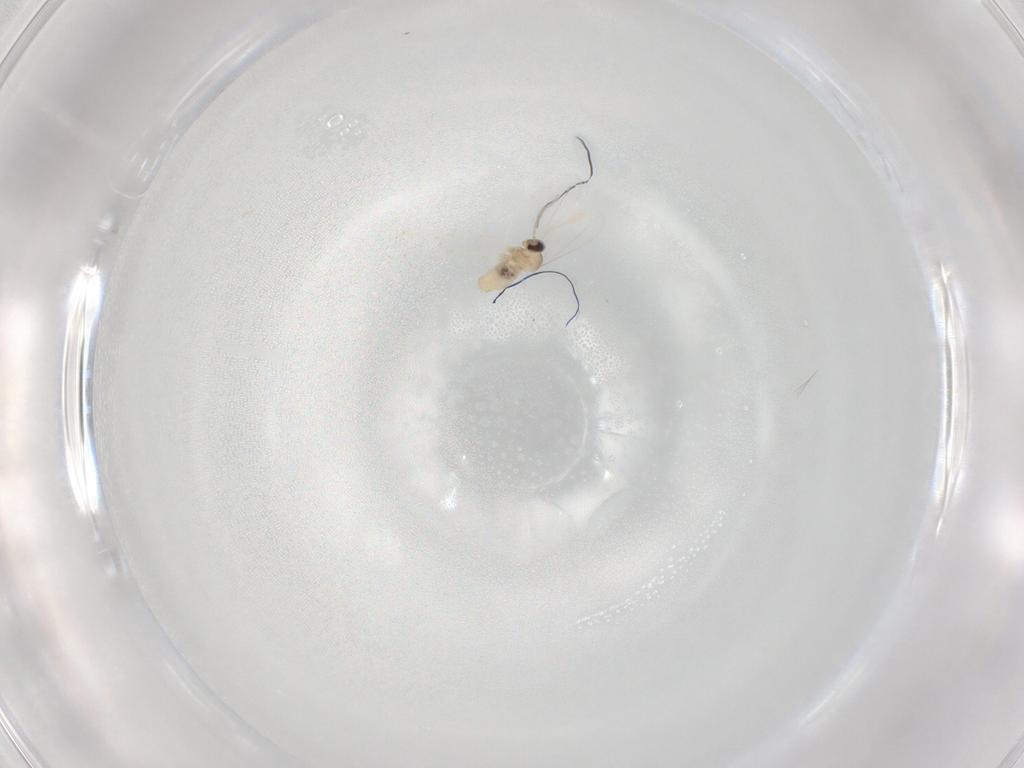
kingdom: Animalia
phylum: Arthropoda
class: Insecta
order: Diptera
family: Cecidomyiidae
